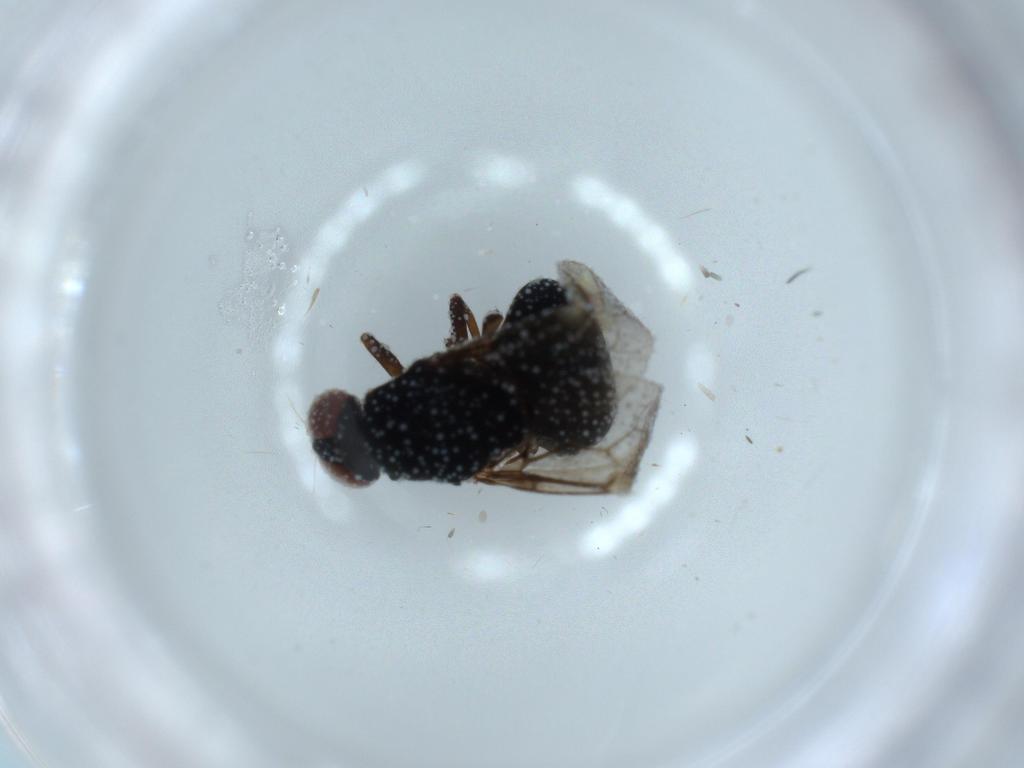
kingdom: Animalia
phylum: Arthropoda
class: Insecta
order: Diptera
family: Stratiomyidae
